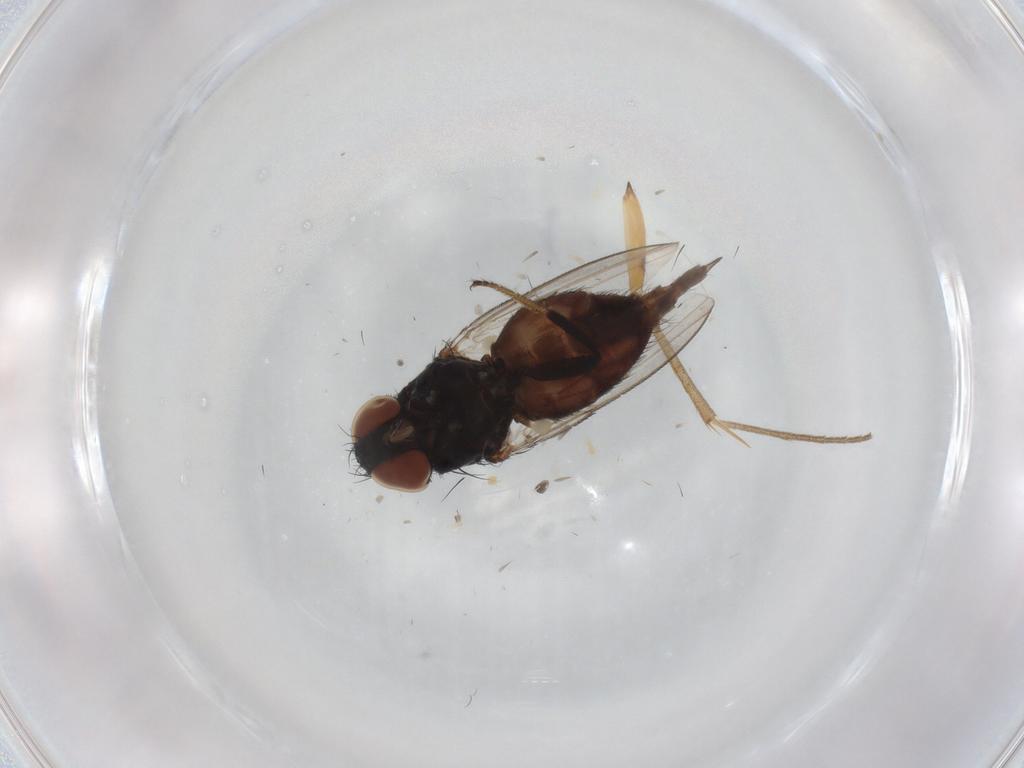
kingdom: Animalia
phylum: Arthropoda
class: Insecta
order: Diptera
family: Mycetophilidae
